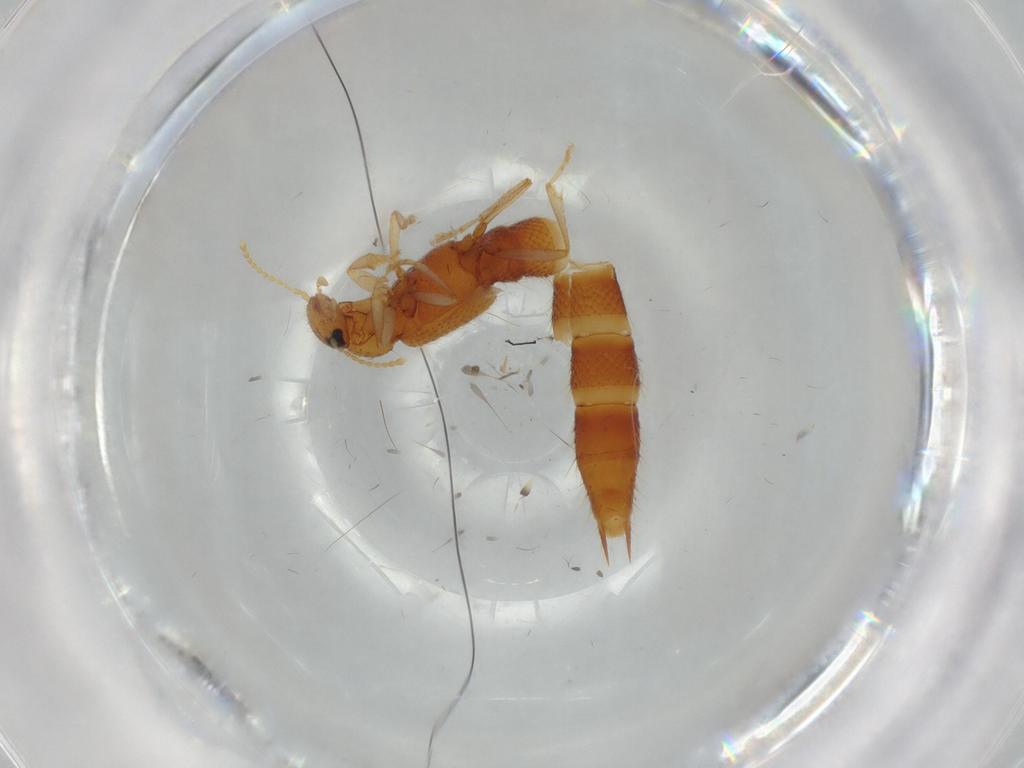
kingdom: Animalia
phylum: Arthropoda
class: Insecta
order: Coleoptera
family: Staphylinidae
